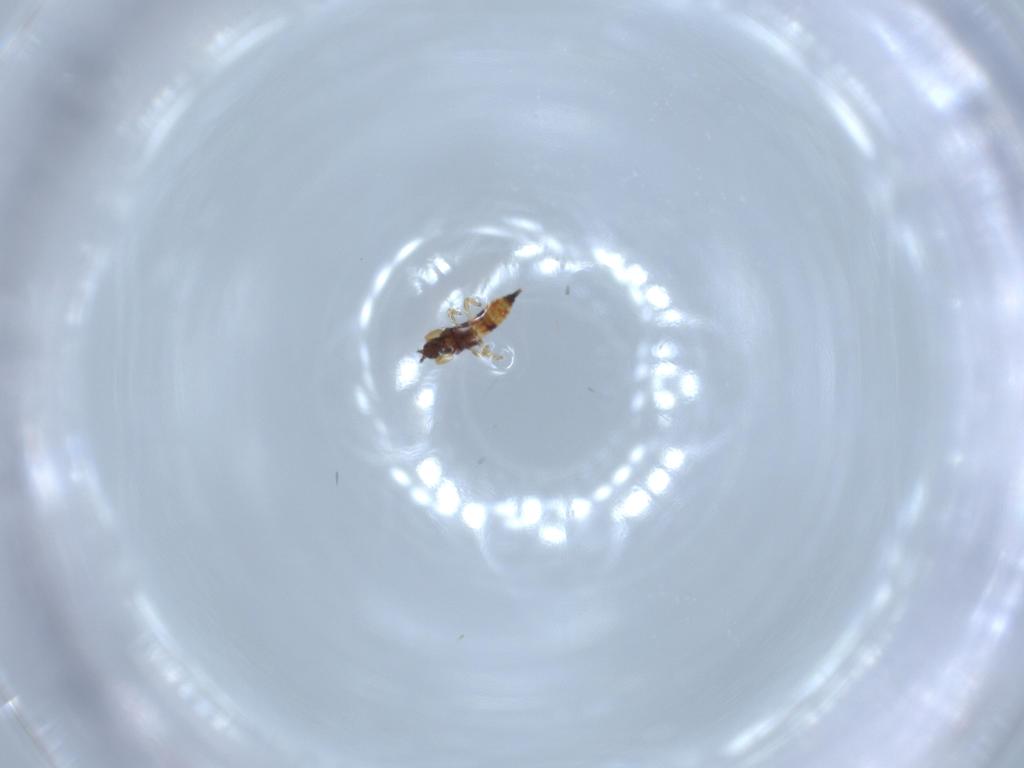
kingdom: Animalia
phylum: Arthropoda
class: Insecta
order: Thysanoptera
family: Phlaeothripidae
